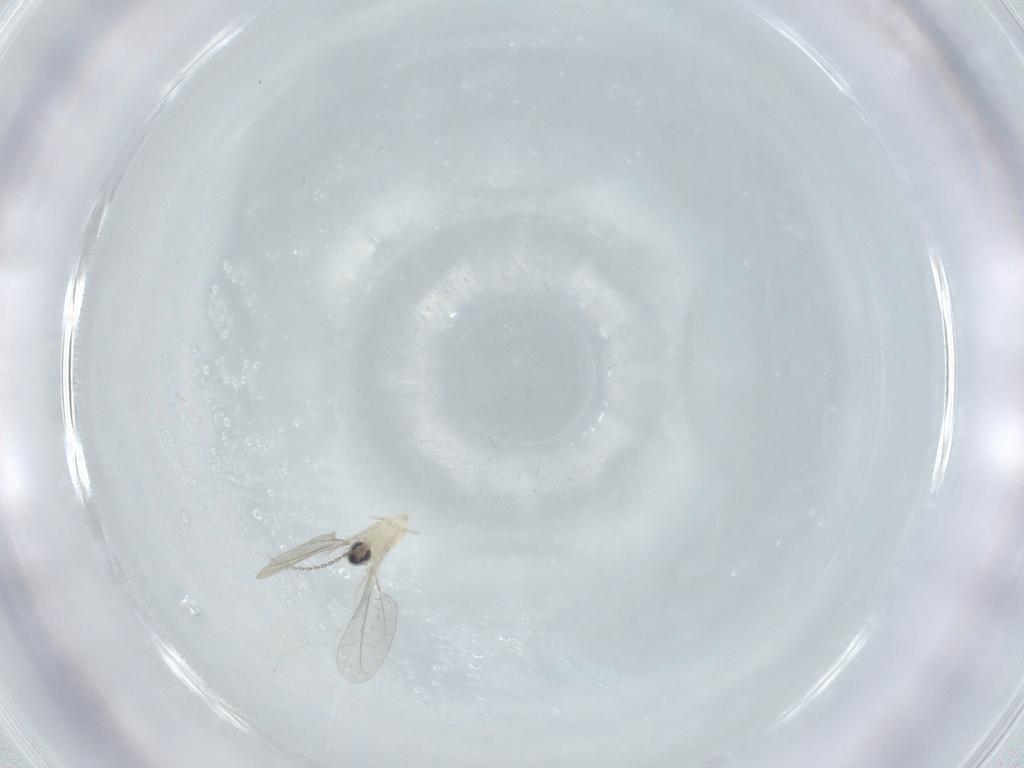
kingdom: Animalia
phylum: Arthropoda
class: Insecta
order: Diptera
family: Cecidomyiidae
